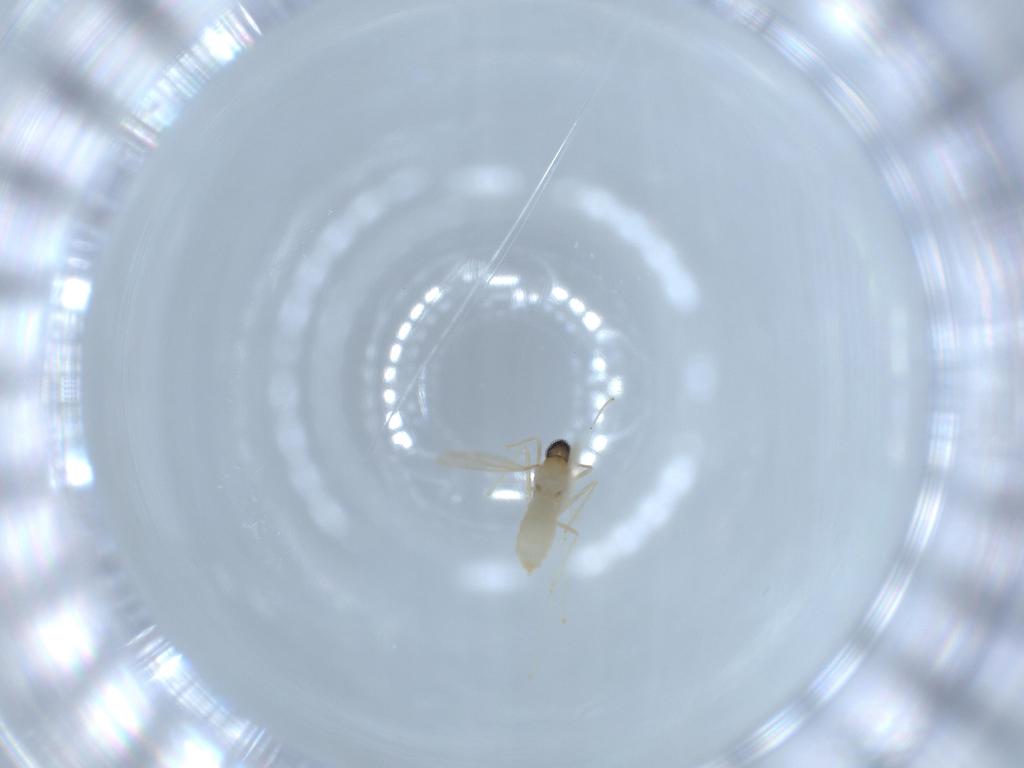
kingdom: Animalia
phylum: Arthropoda
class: Insecta
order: Diptera
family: Cecidomyiidae
